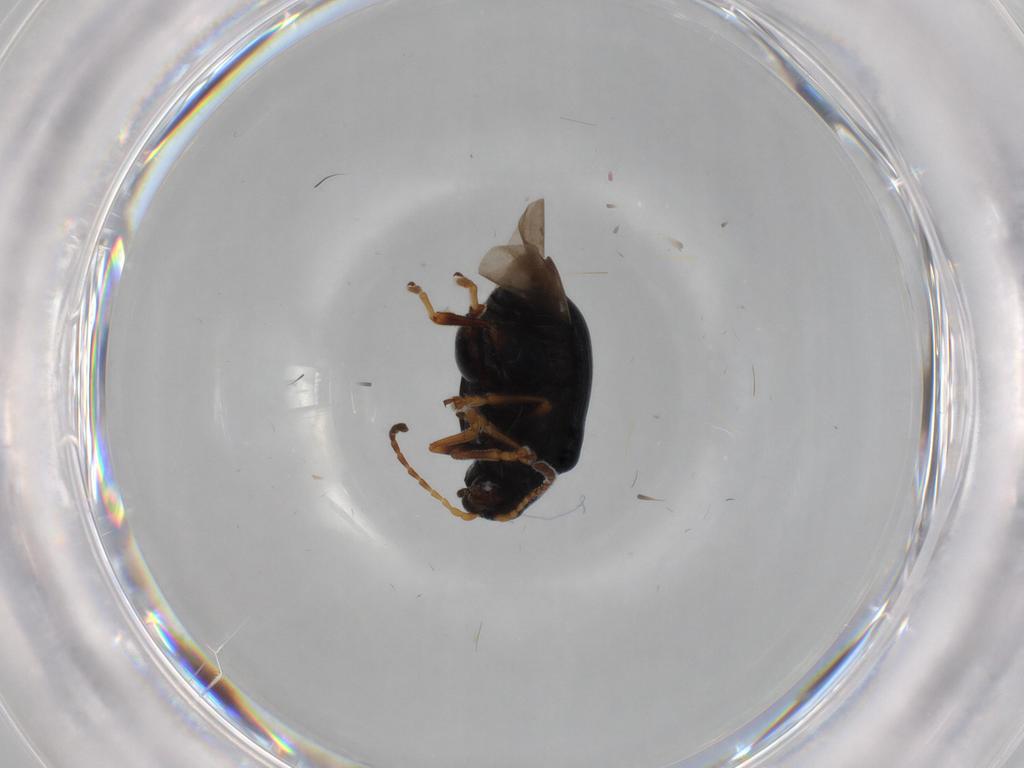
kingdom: Animalia
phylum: Arthropoda
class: Insecta
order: Coleoptera
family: Chrysomelidae
